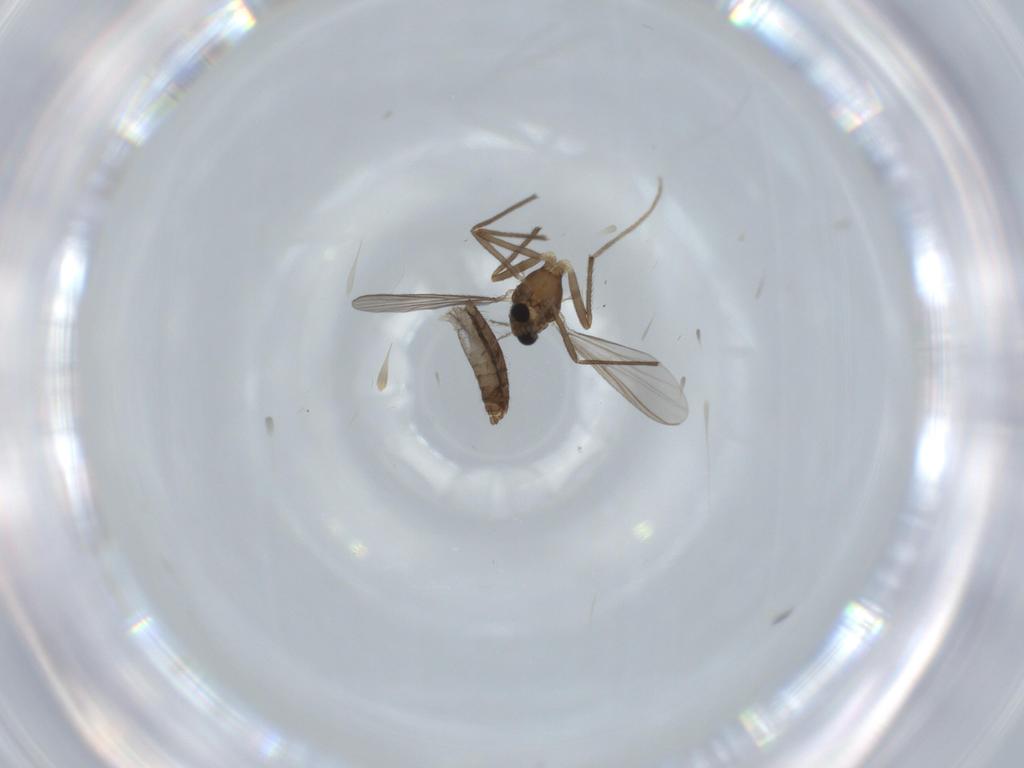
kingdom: Animalia
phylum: Arthropoda
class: Insecta
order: Diptera
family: Chironomidae
